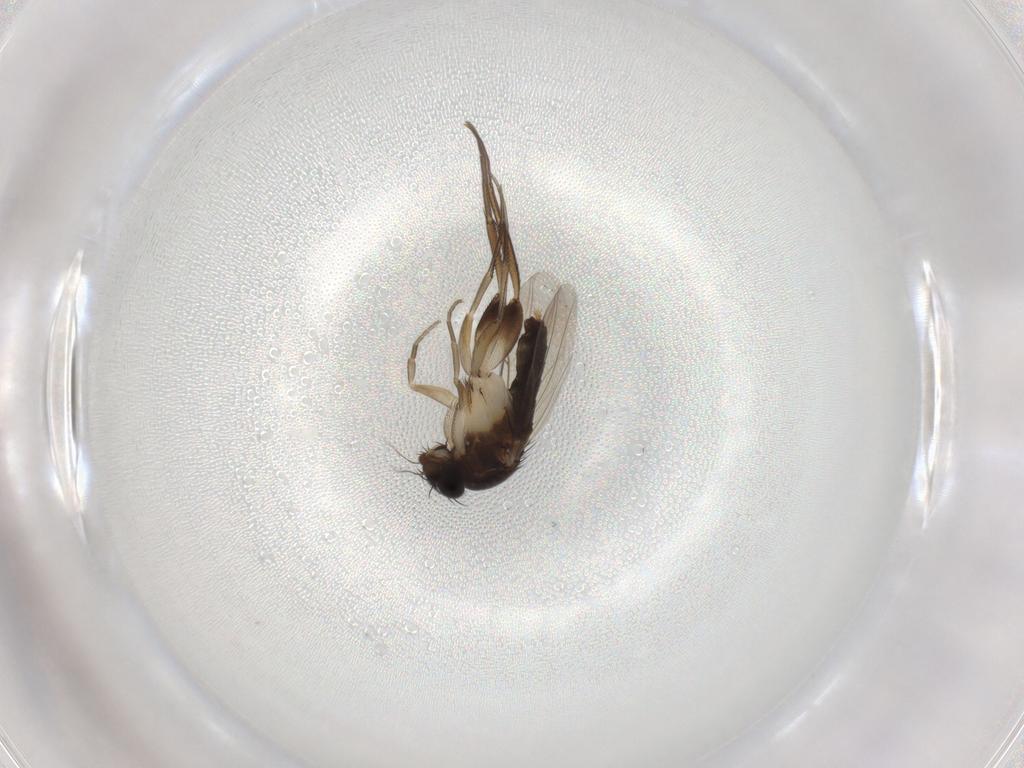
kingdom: Animalia
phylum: Arthropoda
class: Insecta
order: Diptera
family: Phoridae
